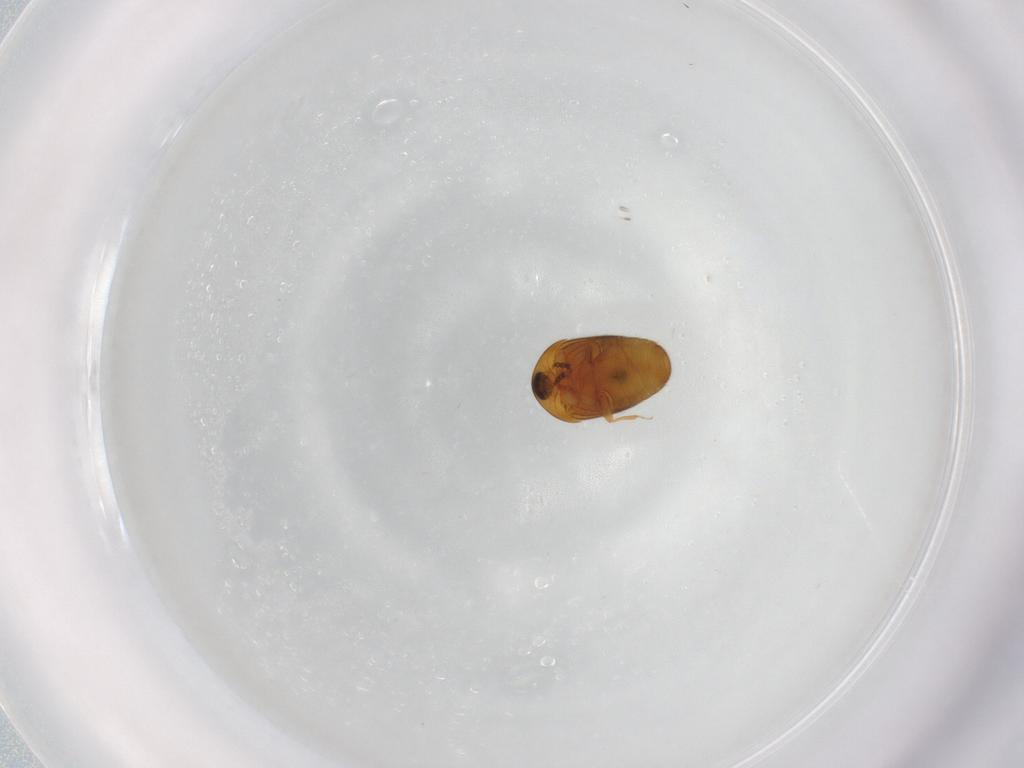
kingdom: Animalia
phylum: Arthropoda
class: Insecta
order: Coleoptera
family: Corylophidae
